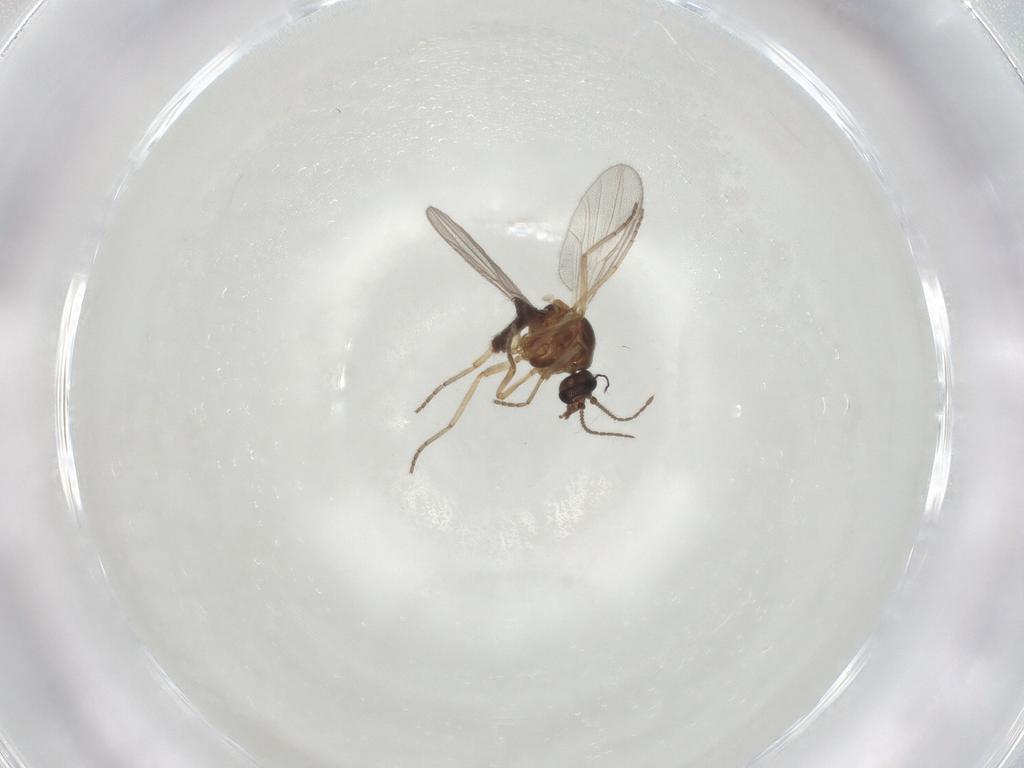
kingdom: Animalia
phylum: Arthropoda
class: Insecta
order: Diptera
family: Ceratopogonidae
